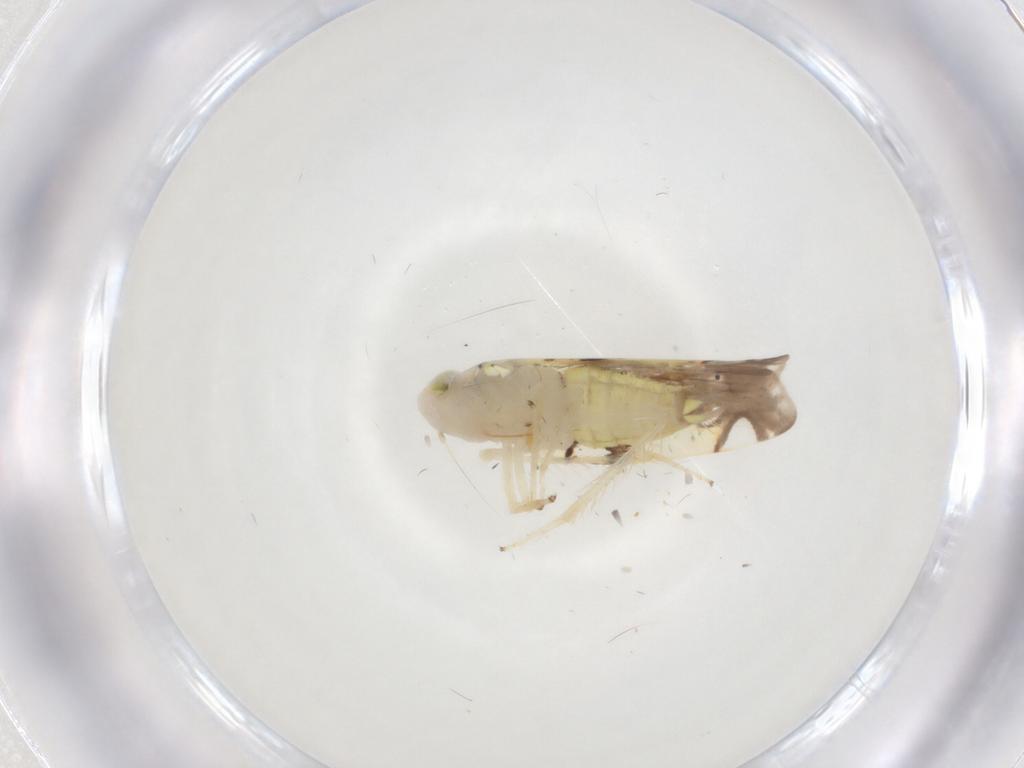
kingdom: Animalia
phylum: Arthropoda
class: Insecta
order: Hemiptera
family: Cicadellidae
